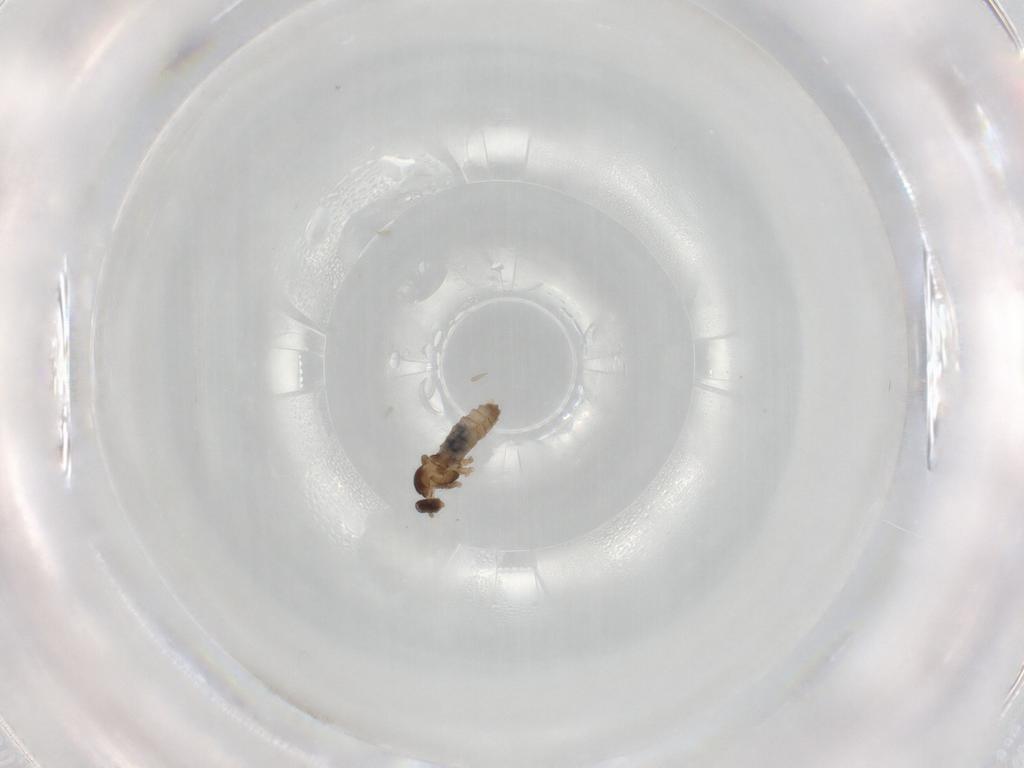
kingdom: Animalia
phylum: Arthropoda
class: Insecta
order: Diptera
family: Cecidomyiidae
